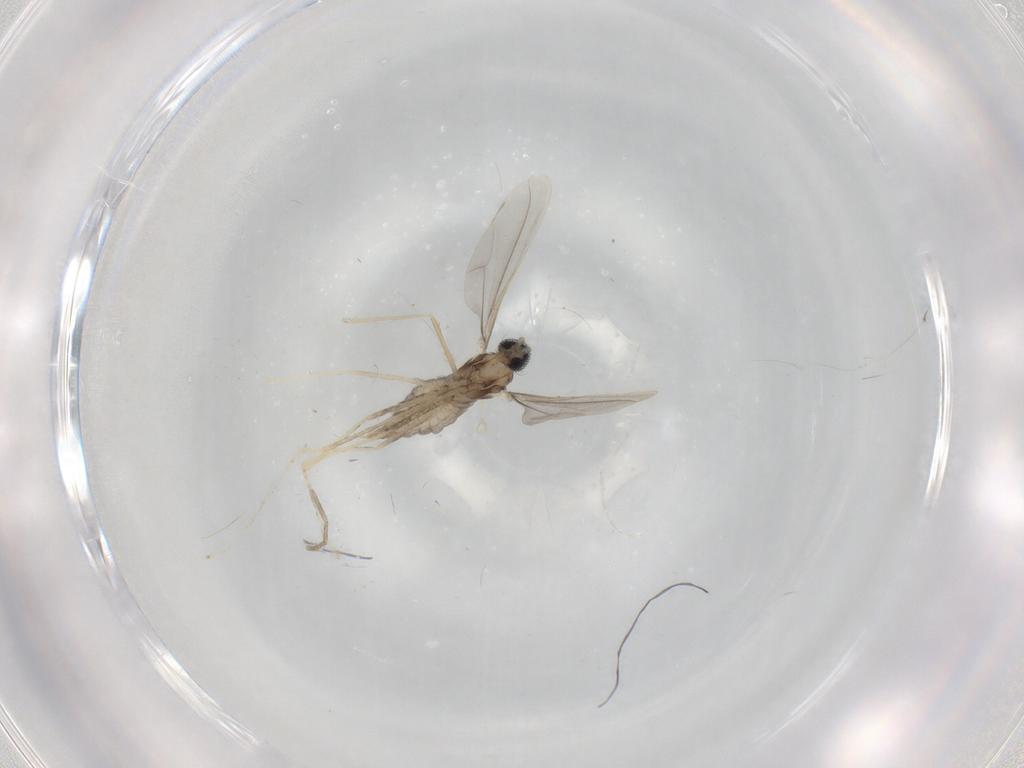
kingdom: Animalia
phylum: Arthropoda
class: Insecta
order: Diptera
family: Cecidomyiidae
